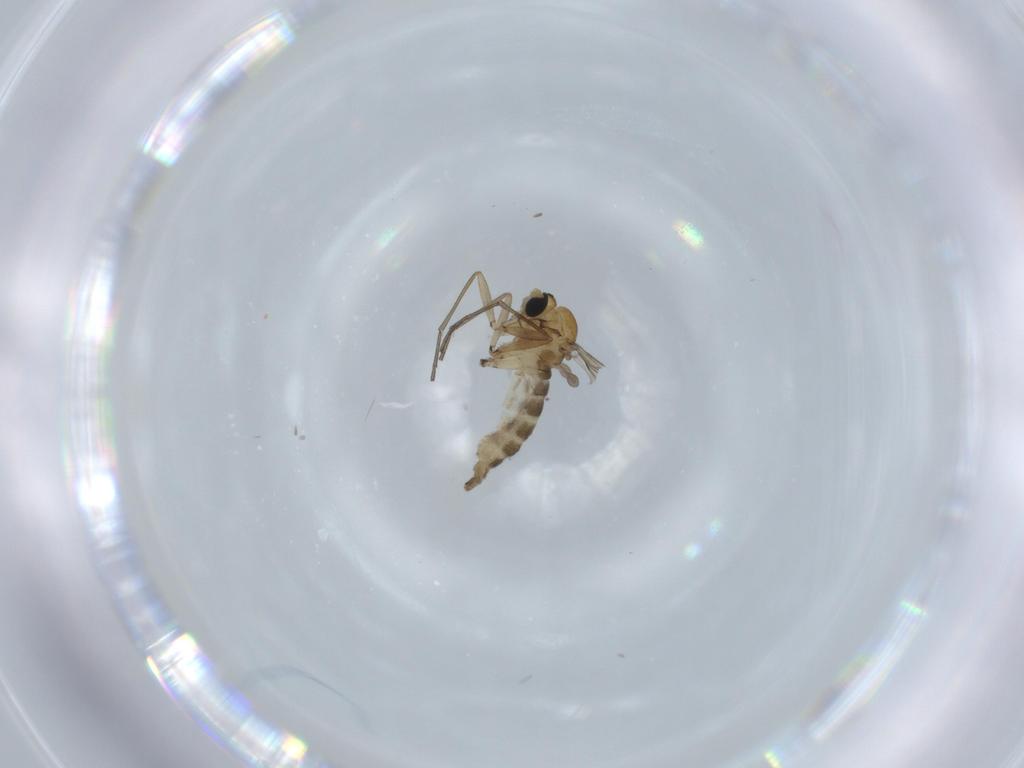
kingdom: Animalia
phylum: Arthropoda
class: Insecta
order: Diptera
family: Sciaridae
